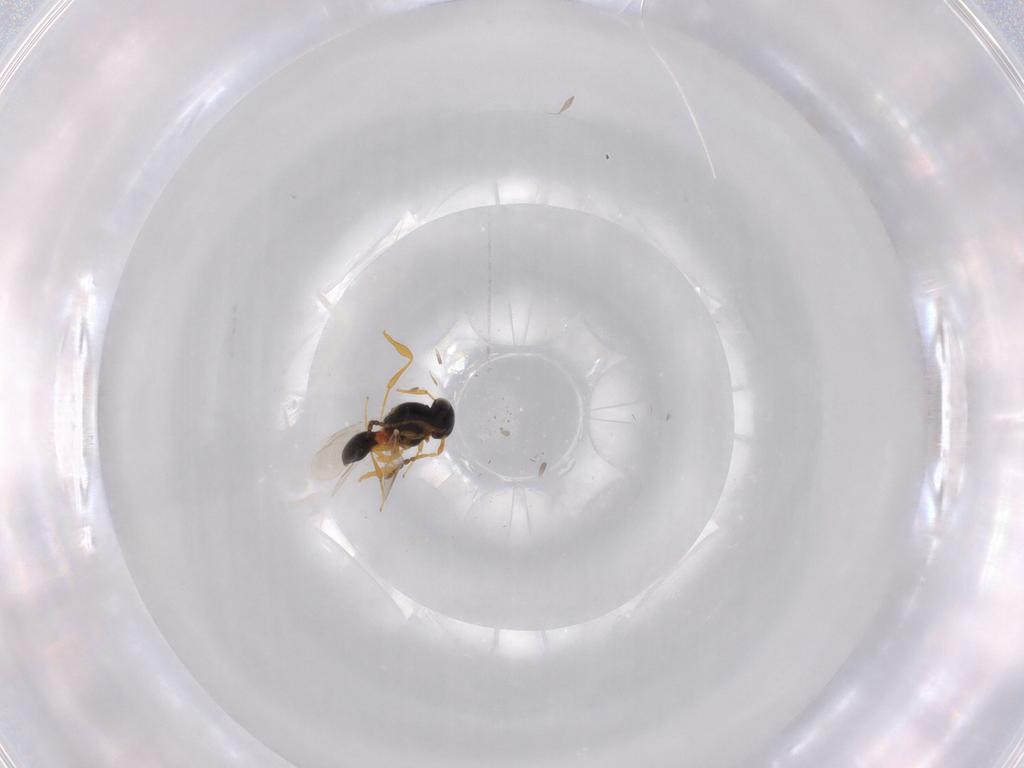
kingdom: Animalia
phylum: Arthropoda
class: Insecta
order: Hymenoptera
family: Platygastridae
